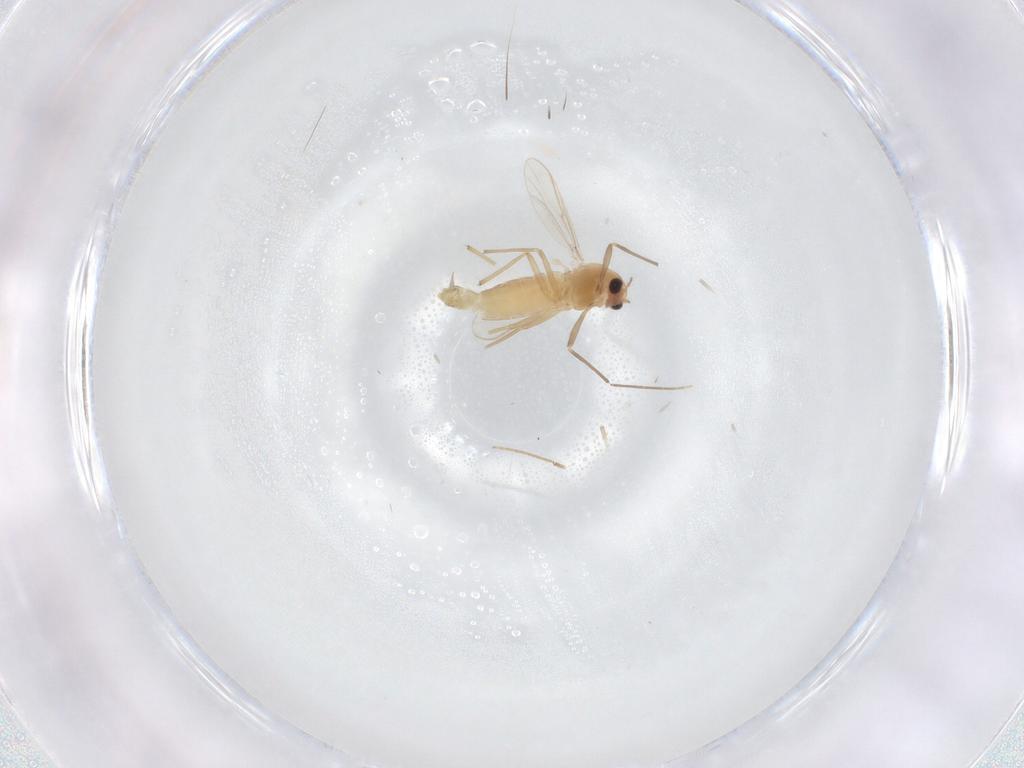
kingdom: Animalia
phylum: Arthropoda
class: Insecta
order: Diptera
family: Chironomidae
